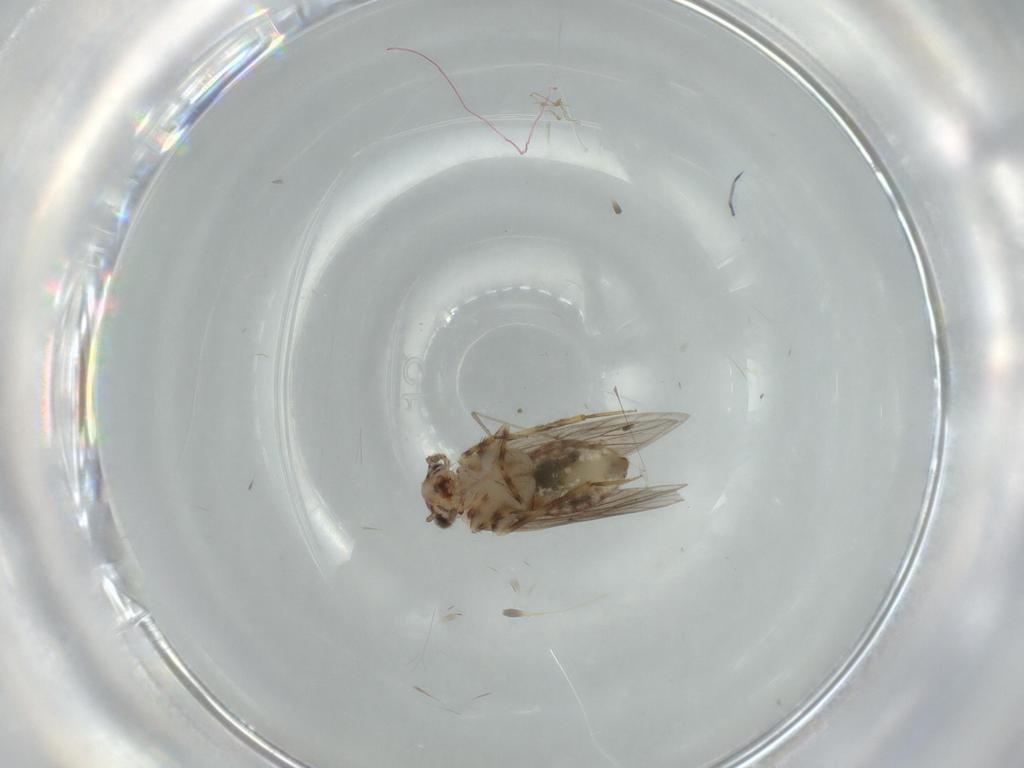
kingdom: Animalia
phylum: Arthropoda
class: Insecta
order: Psocodea
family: Lepidopsocidae
